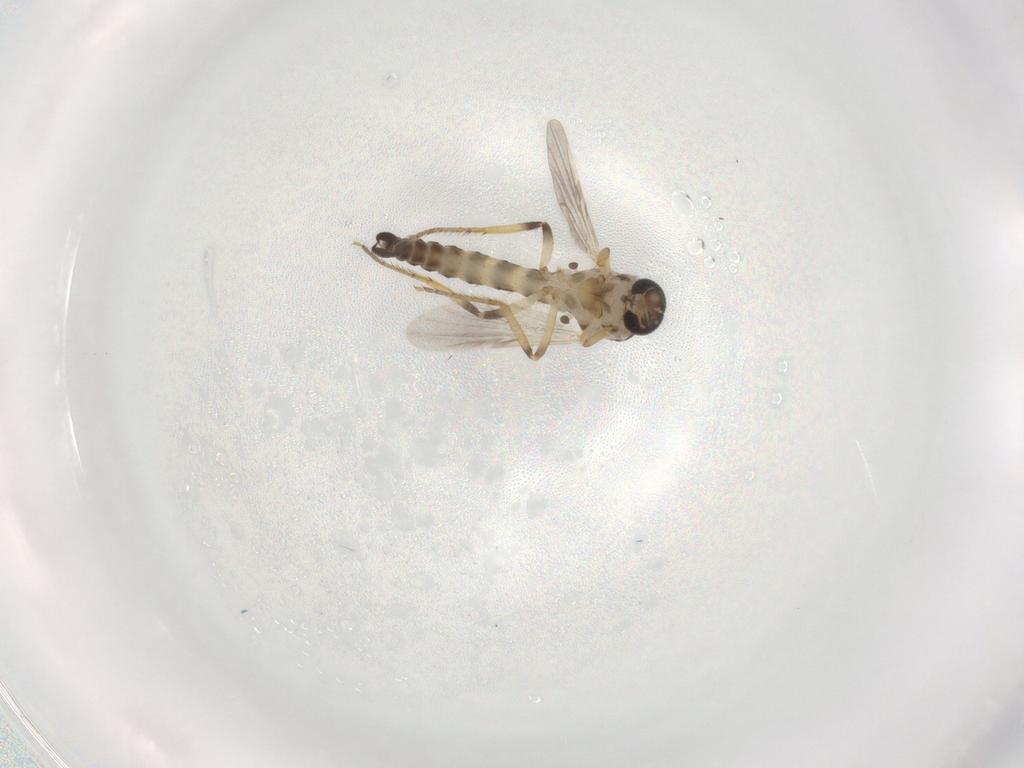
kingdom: Animalia
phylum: Arthropoda
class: Insecta
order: Diptera
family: Ceratopogonidae
